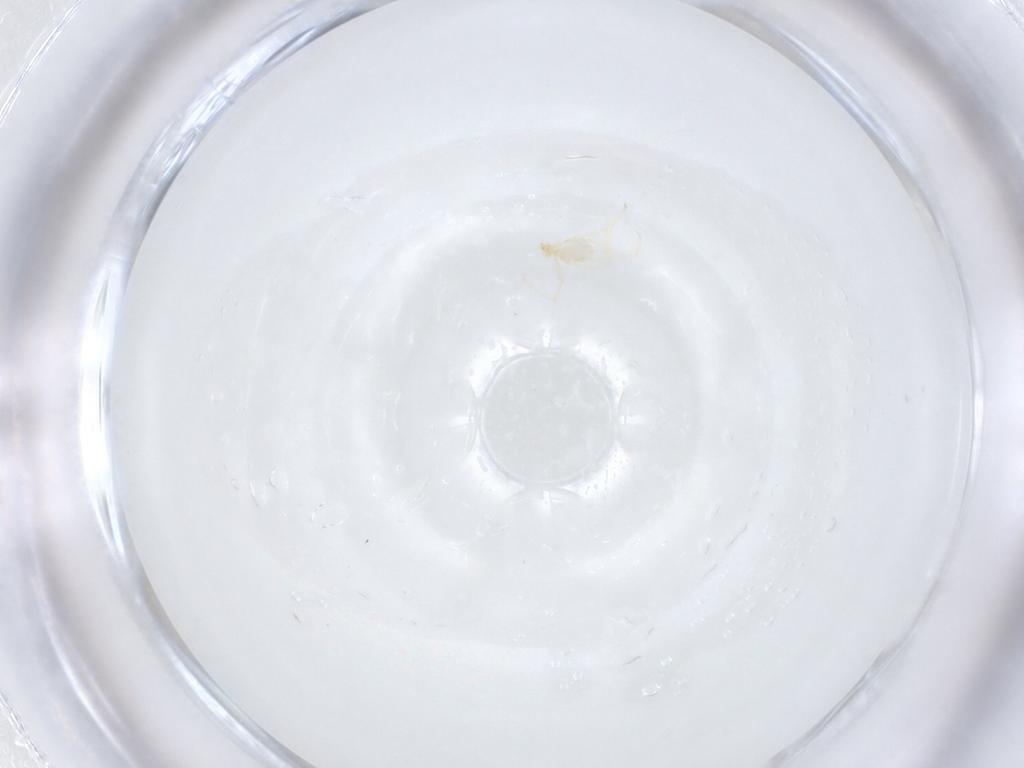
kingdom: Animalia
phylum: Arthropoda
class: Arachnida
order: Trombidiformes
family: Erythraeidae
